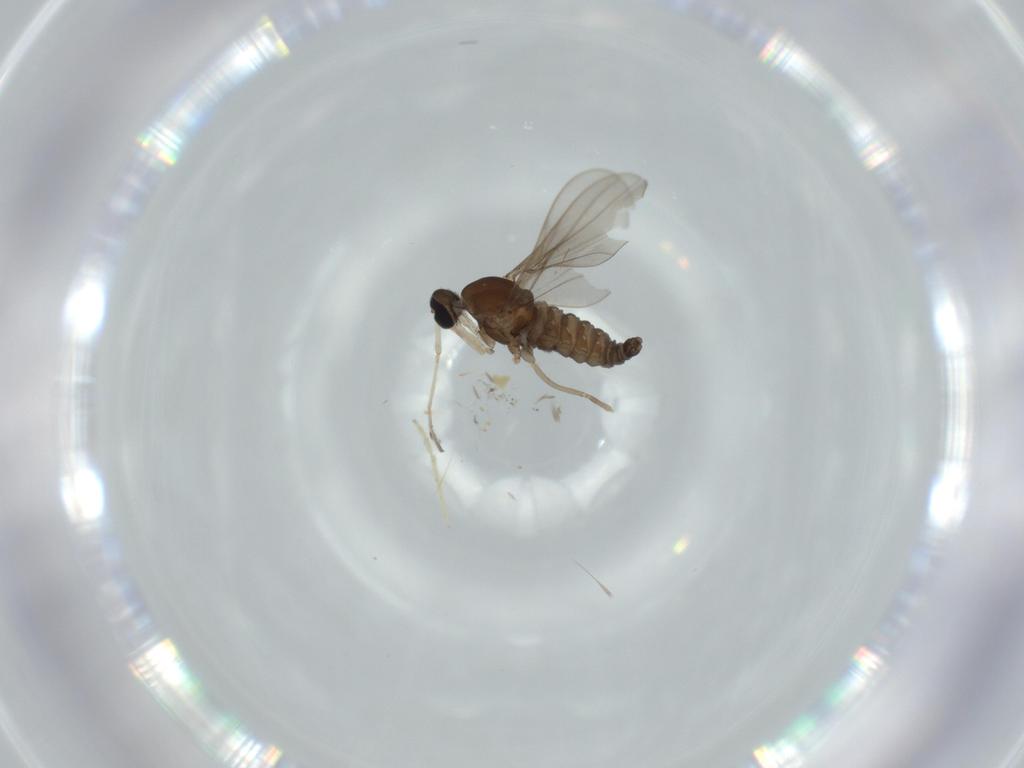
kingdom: Animalia
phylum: Arthropoda
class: Insecta
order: Diptera
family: Cecidomyiidae
